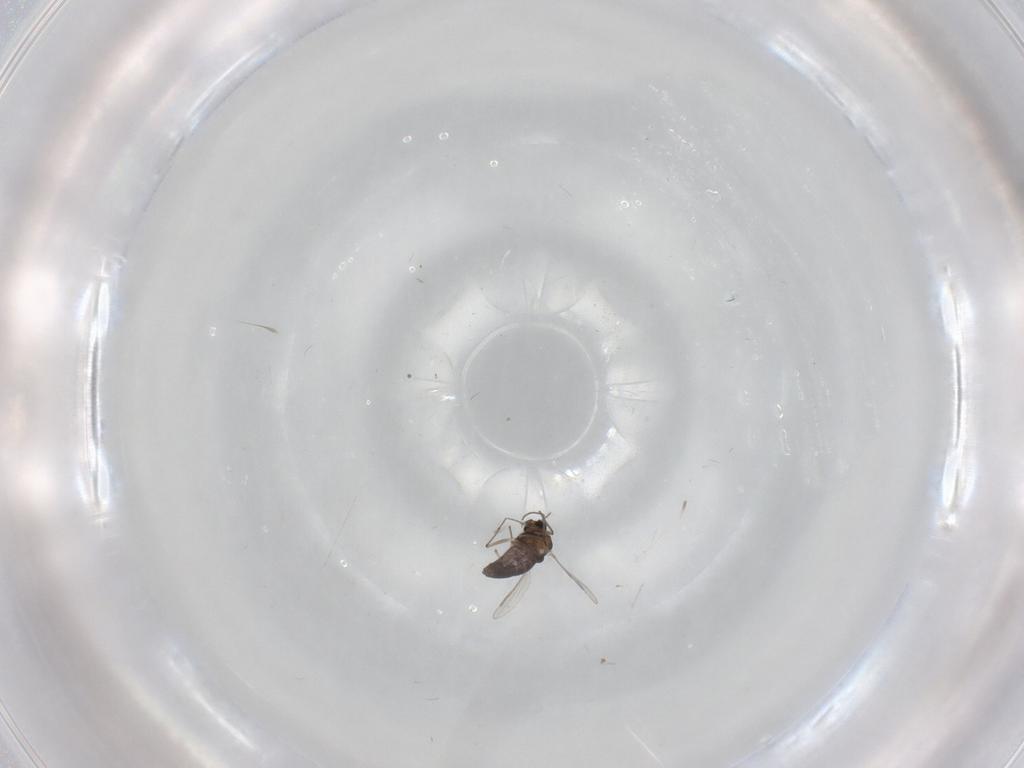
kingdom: Animalia
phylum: Arthropoda
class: Insecta
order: Diptera
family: Chironomidae
